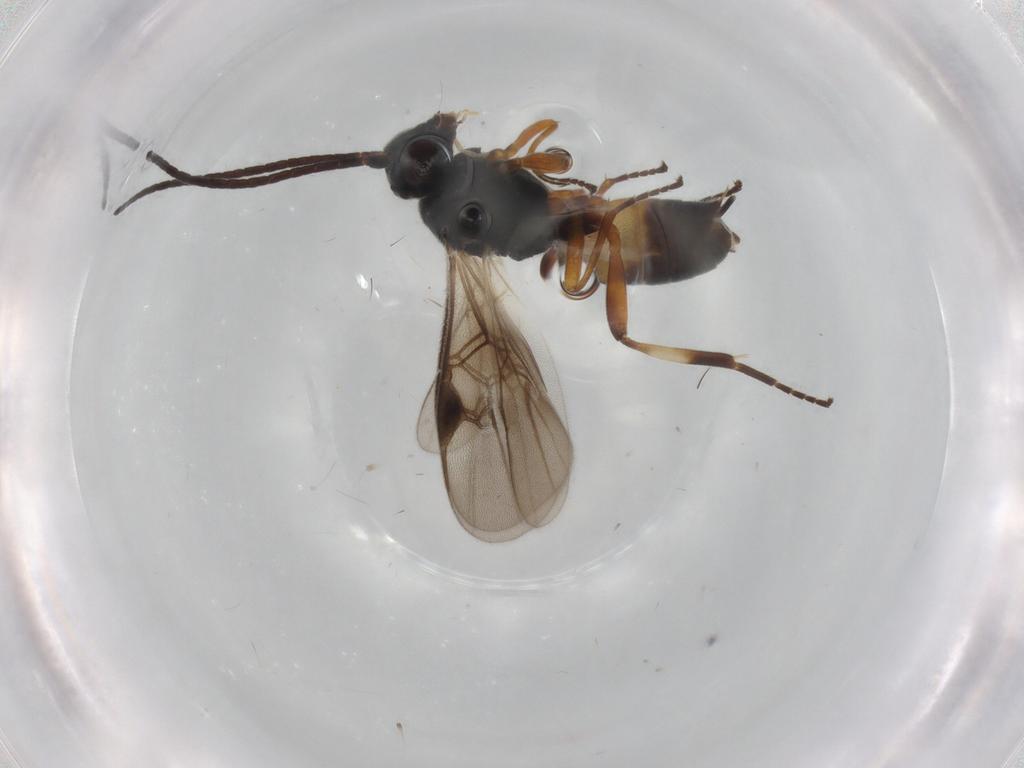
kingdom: Animalia
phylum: Arthropoda
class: Insecta
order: Hymenoptera
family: Braconidae
